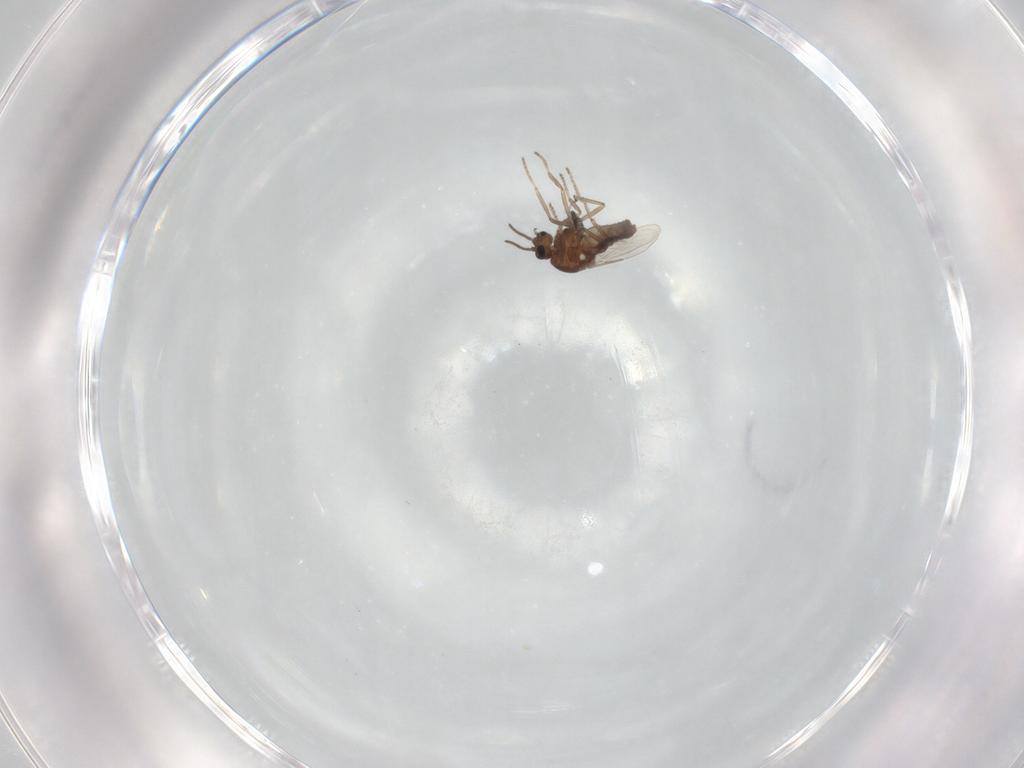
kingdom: Animalia
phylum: Arthropoda
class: Insecta
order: Diptera
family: Ceratopogonidae
